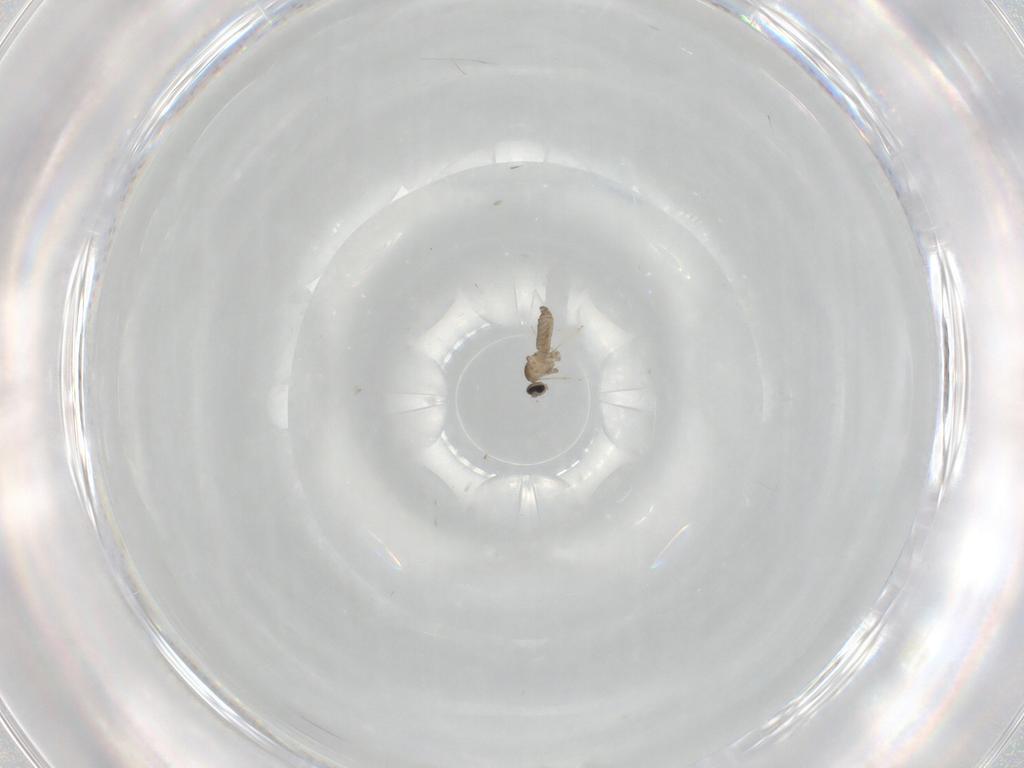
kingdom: Animalia
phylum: Arthropoda
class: Insecta
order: Diptera
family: Cecidomyiidae
